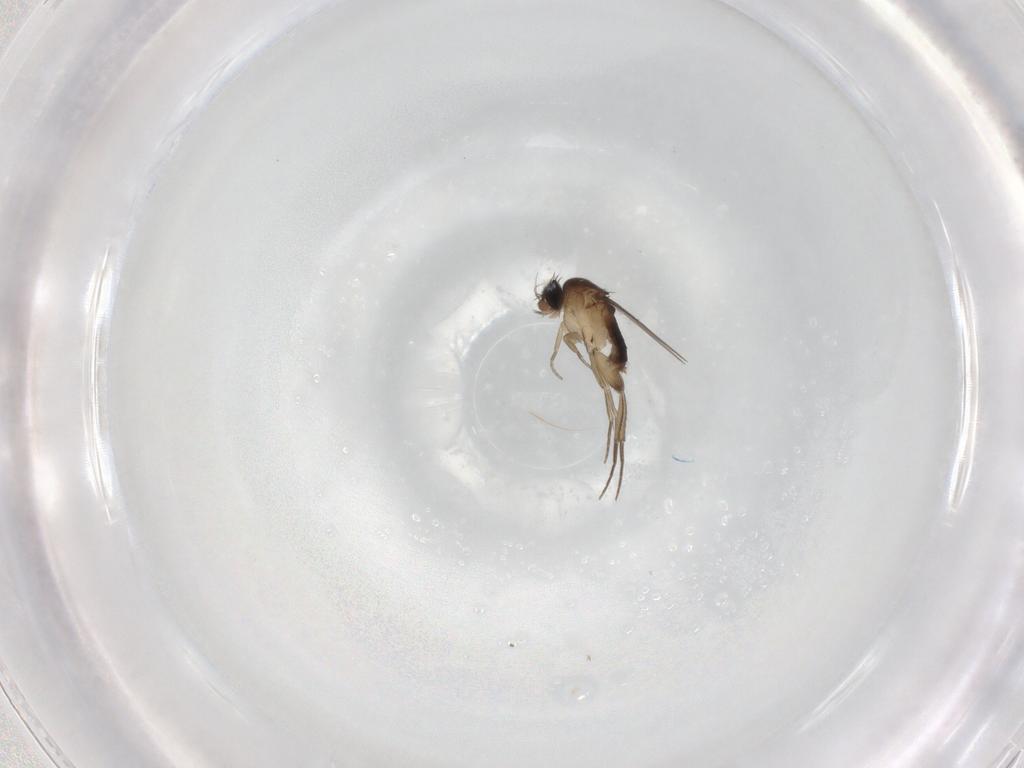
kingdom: Animalia
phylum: Arthropoda
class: Insecta
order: Diptera
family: Phoridae
